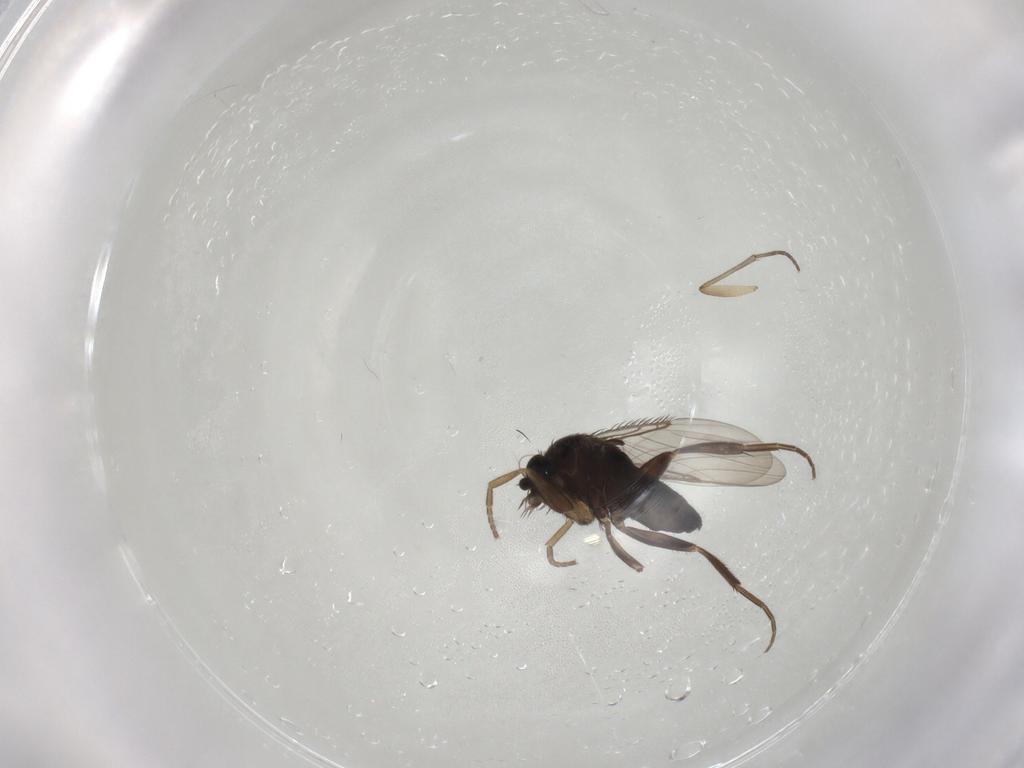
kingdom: Animalia
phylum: Arthropoda
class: Insecta
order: Diptera
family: Phoridae
